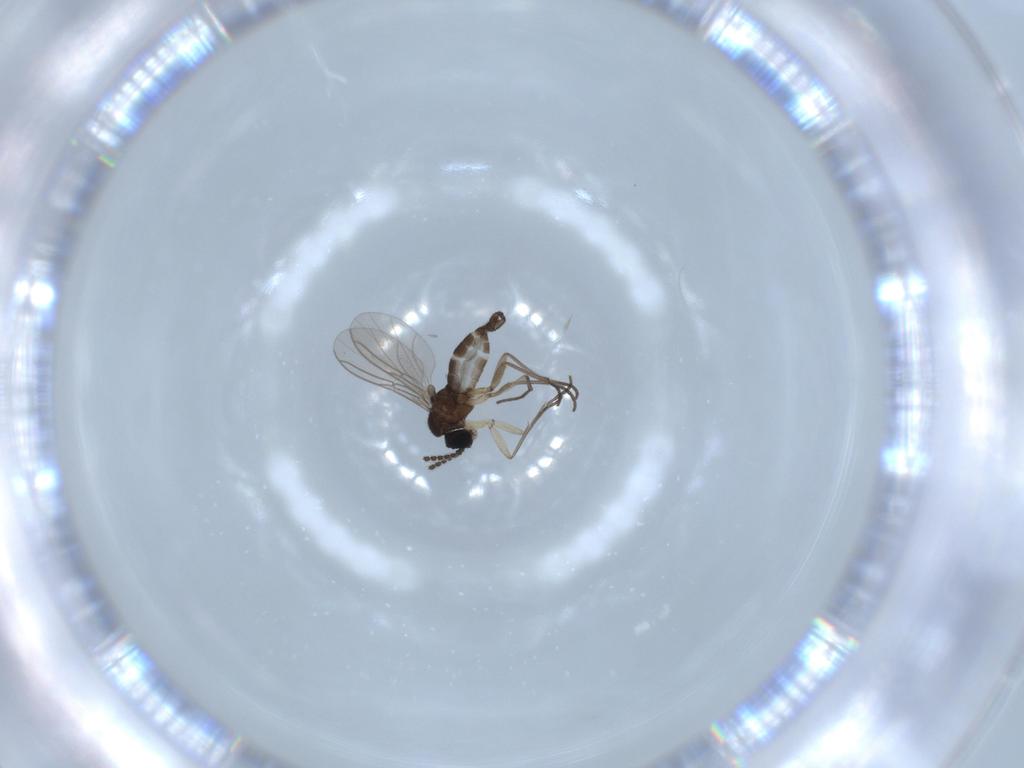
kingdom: Animalia
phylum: Arthropoda
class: Insecta
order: Diptera
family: Sciaridae
